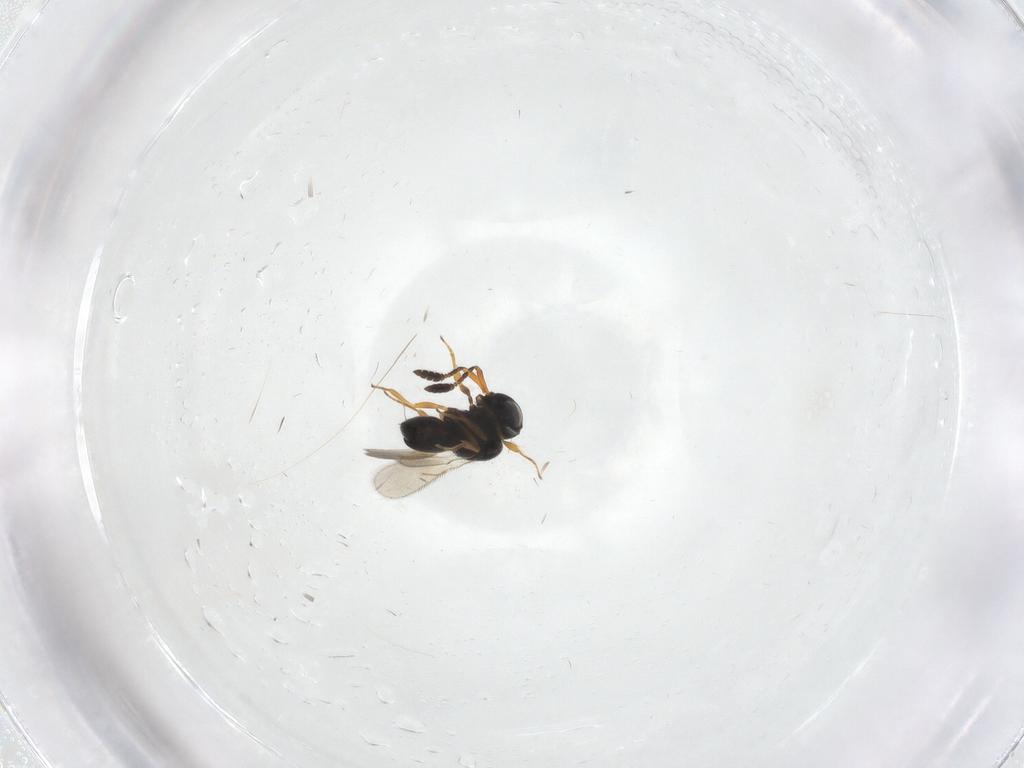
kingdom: Animalia
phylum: Arthropoda
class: Insecta
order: Hymenoptera
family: Scelionidae
